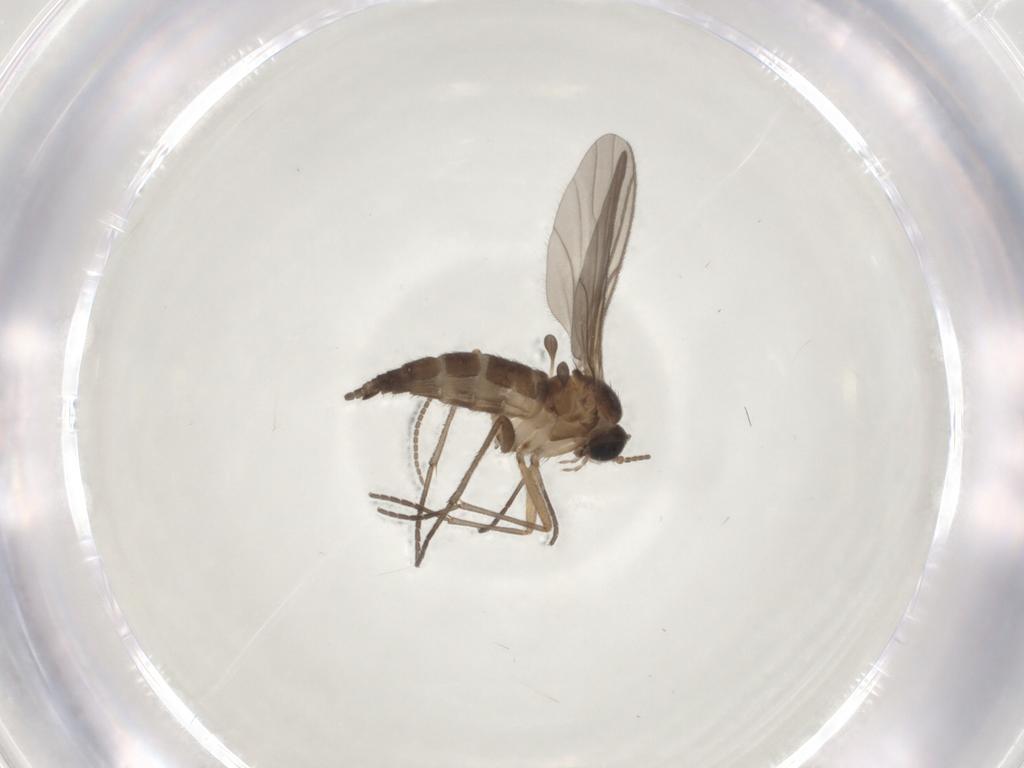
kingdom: Animalia
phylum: Arthropoda
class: Insecta
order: Diptera
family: Sciaridae
